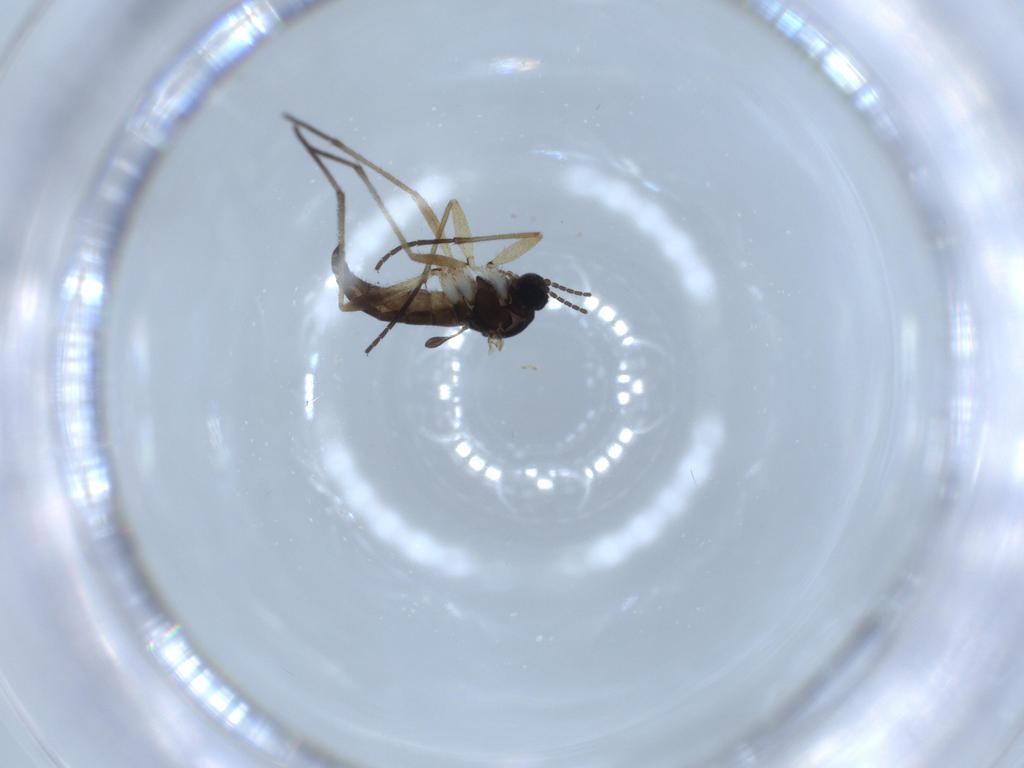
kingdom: Animalia
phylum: Arthropoda
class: Insecta
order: Diptera
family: Sciaridae
